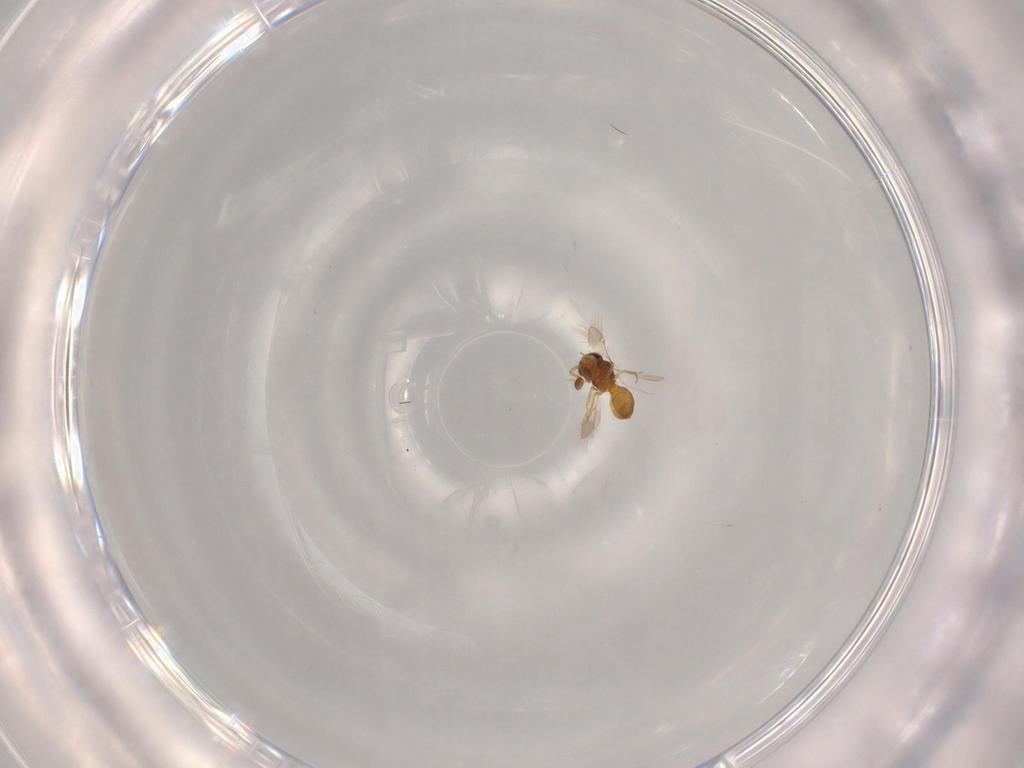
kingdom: Animalia
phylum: Arthropoda
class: Insecta
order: Hymenoptera
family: Scelionidae
